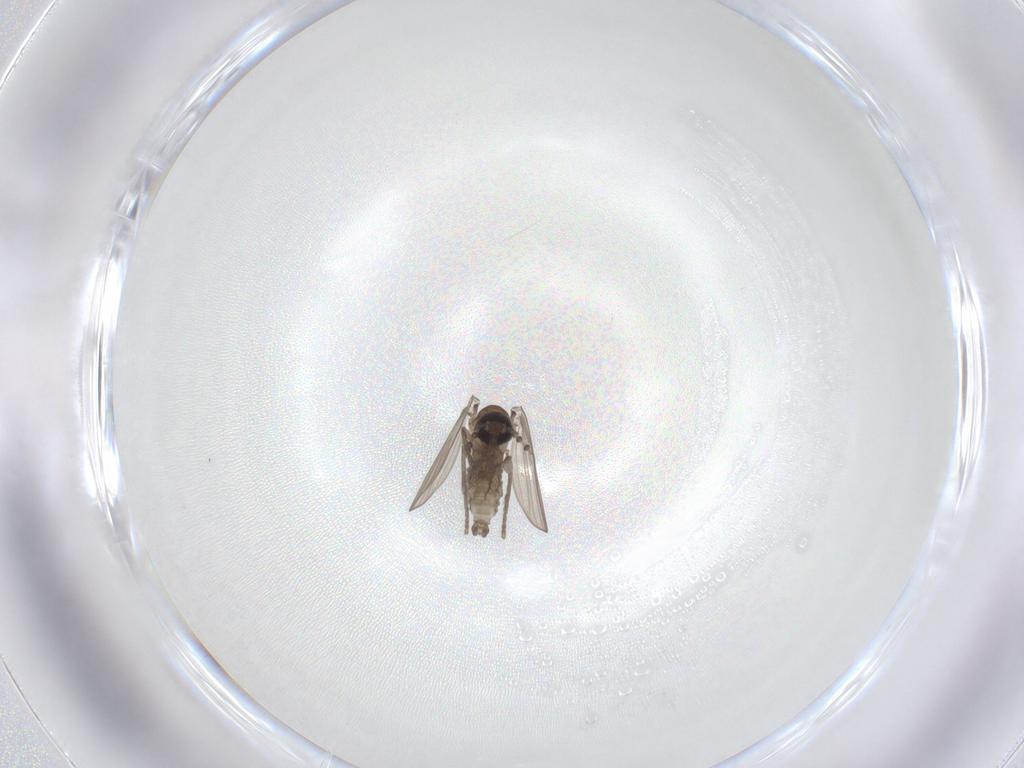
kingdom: Animalia
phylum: Arthropoda
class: Insecta
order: Diptera
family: Psychodidae
